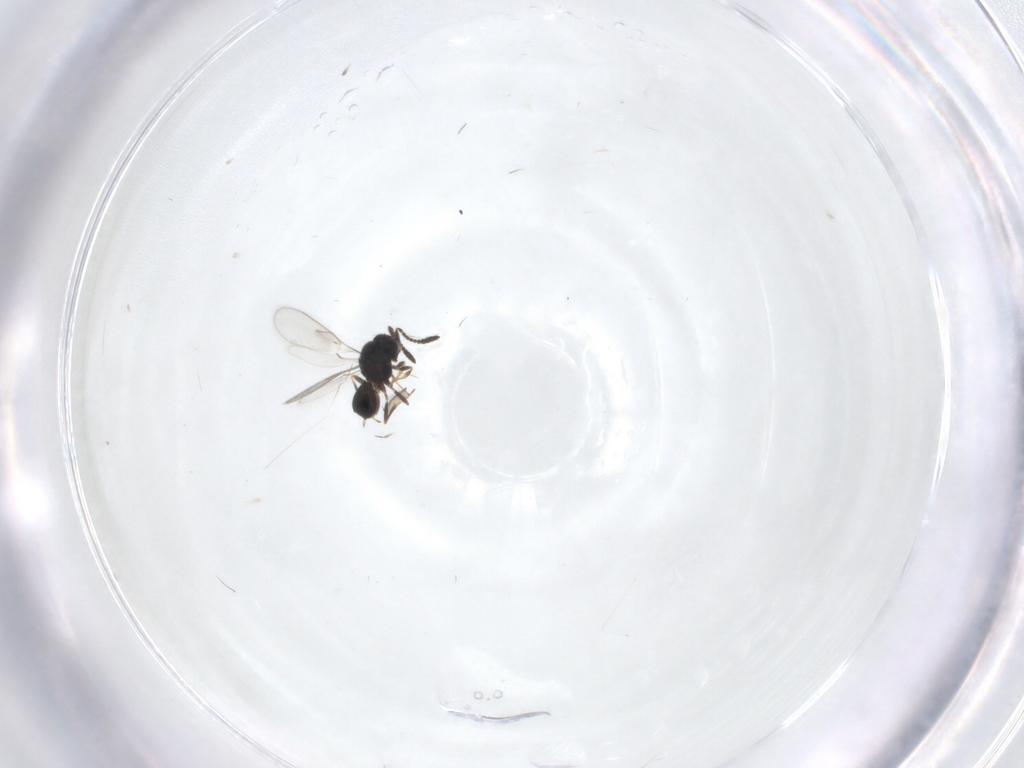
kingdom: Animalia
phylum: Arthropoda
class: Insecta
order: Hymenoptera
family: Scelionidae
